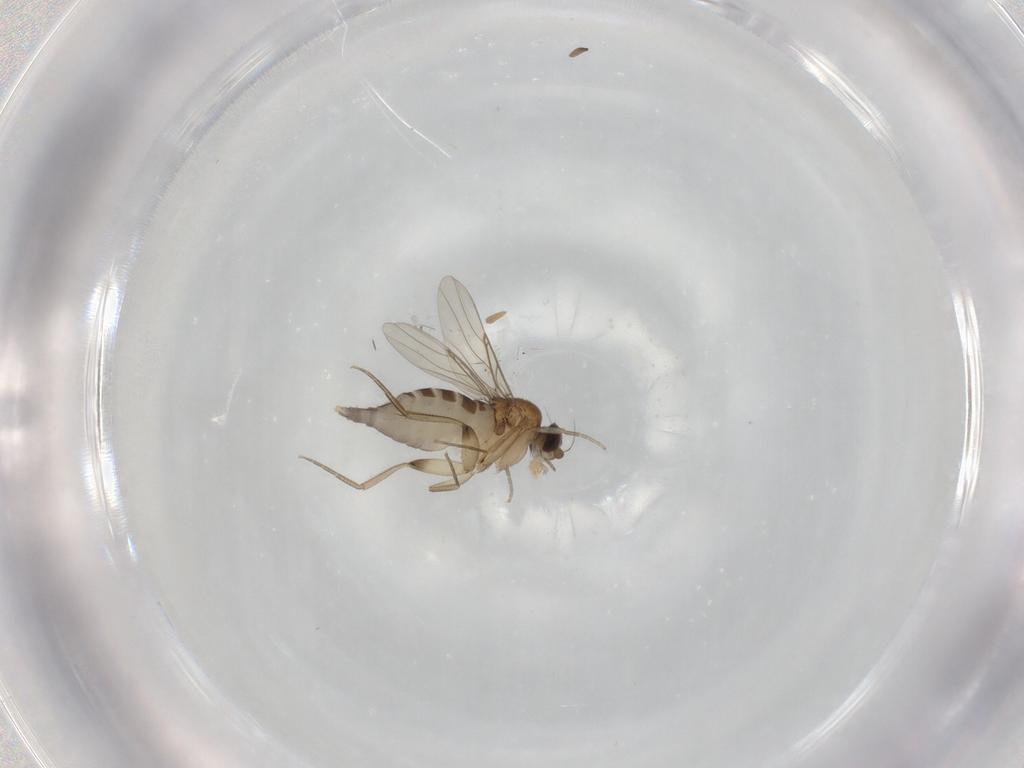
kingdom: Animalia
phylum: Arthropoda
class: Insecta
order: Diptera
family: Phoridae
